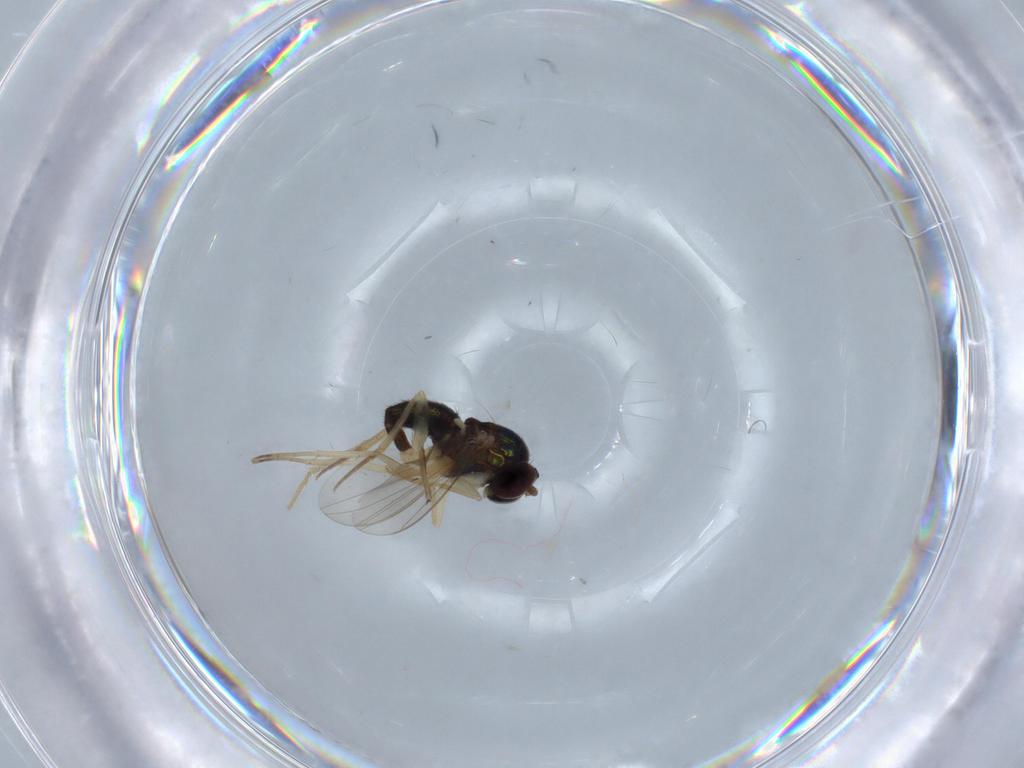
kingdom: Animalia
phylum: Arthropoda
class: Insecta
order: Diptera
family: Dolichopodidae
